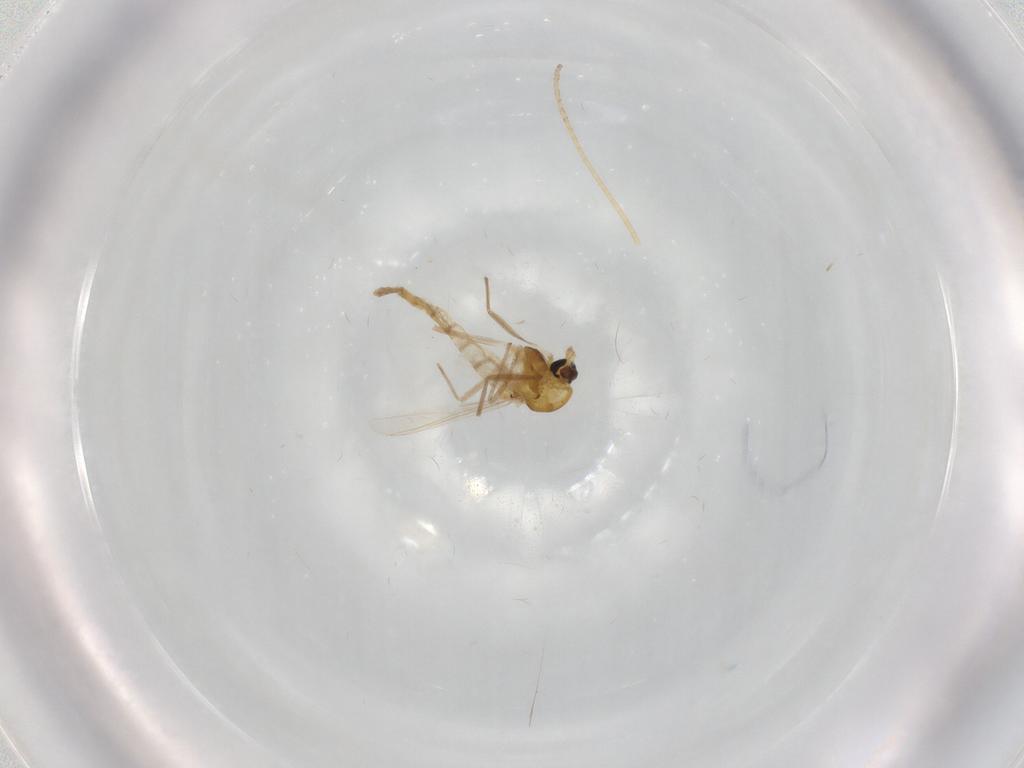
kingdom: Animalia
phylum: Arthropoda
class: Insecta
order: Diptera
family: Chironomidae
